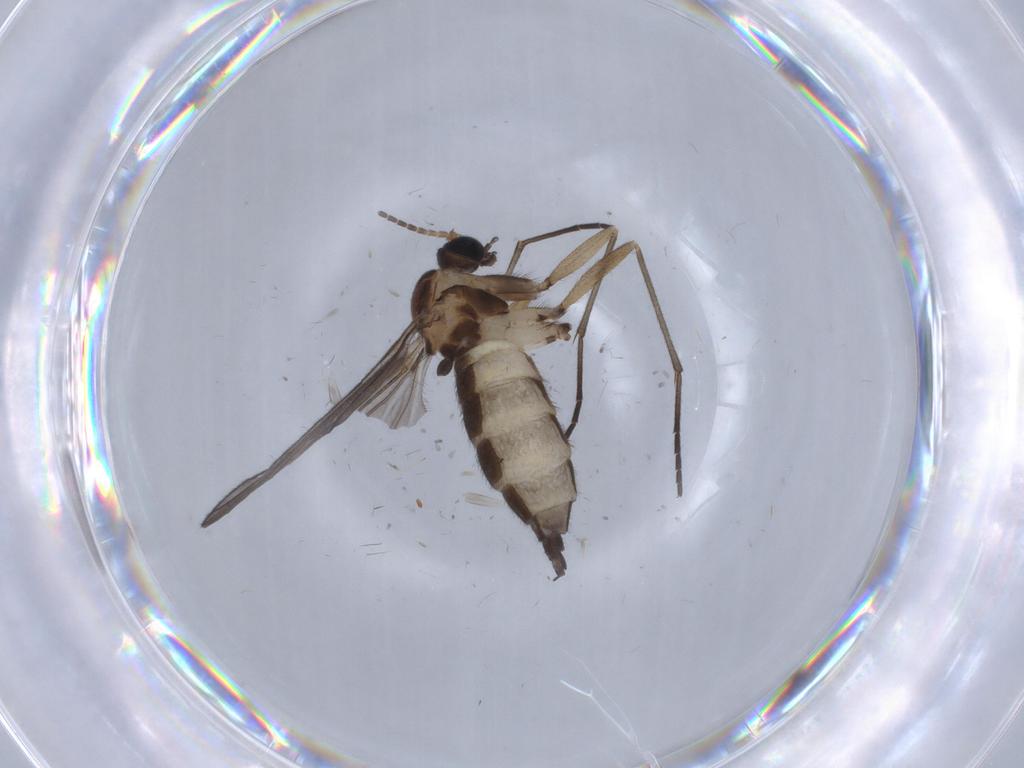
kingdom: Animalia
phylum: Arthropoda
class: Insecta
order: Diptera
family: Sciaridae
